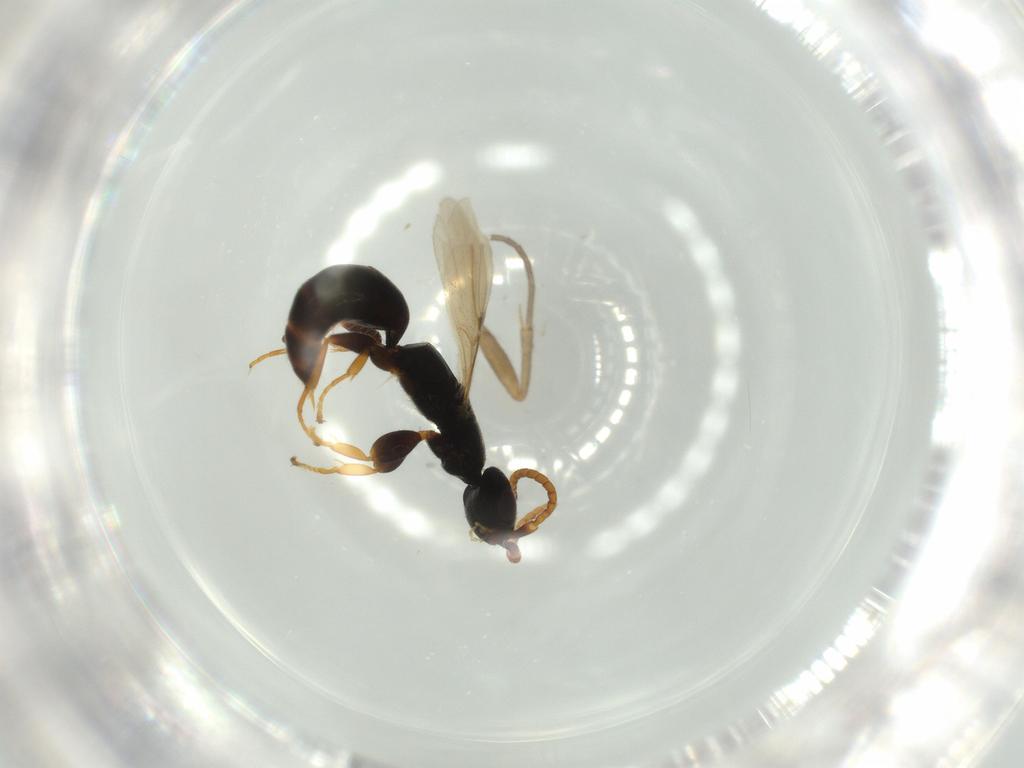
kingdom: Animalia
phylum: Arthropoda
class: Insecta
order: Hymenoptera
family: Bethylidae
